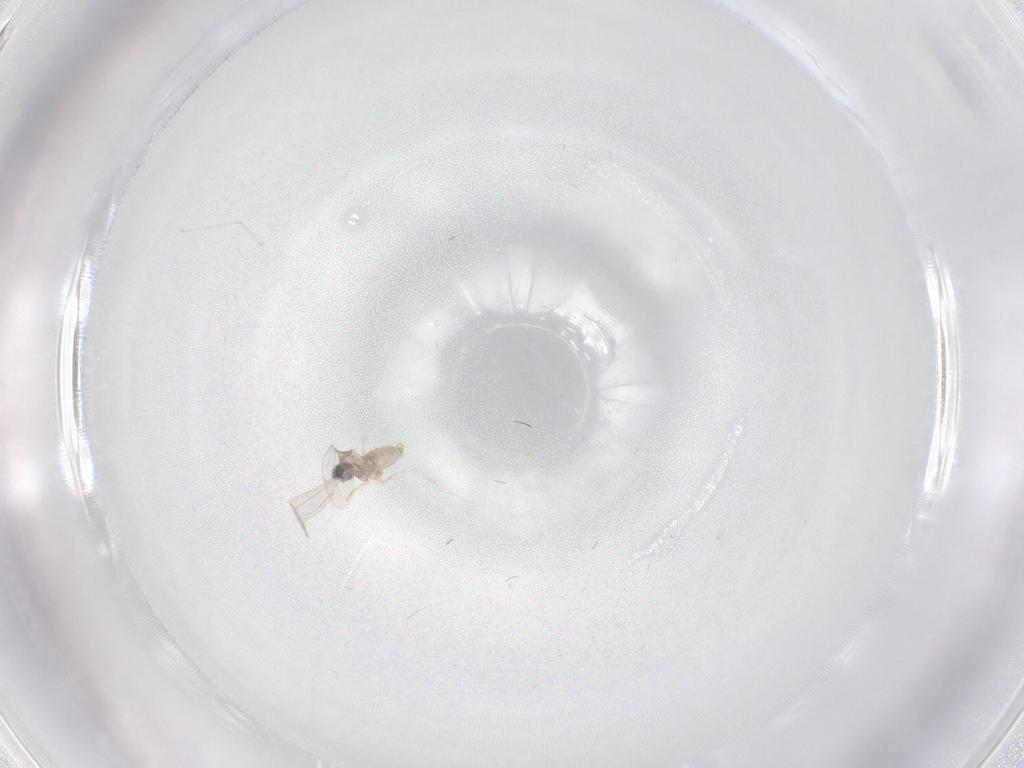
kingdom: Animalia
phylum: Arthropoda
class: Insecta
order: Diptera
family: Cecidomyiidae
